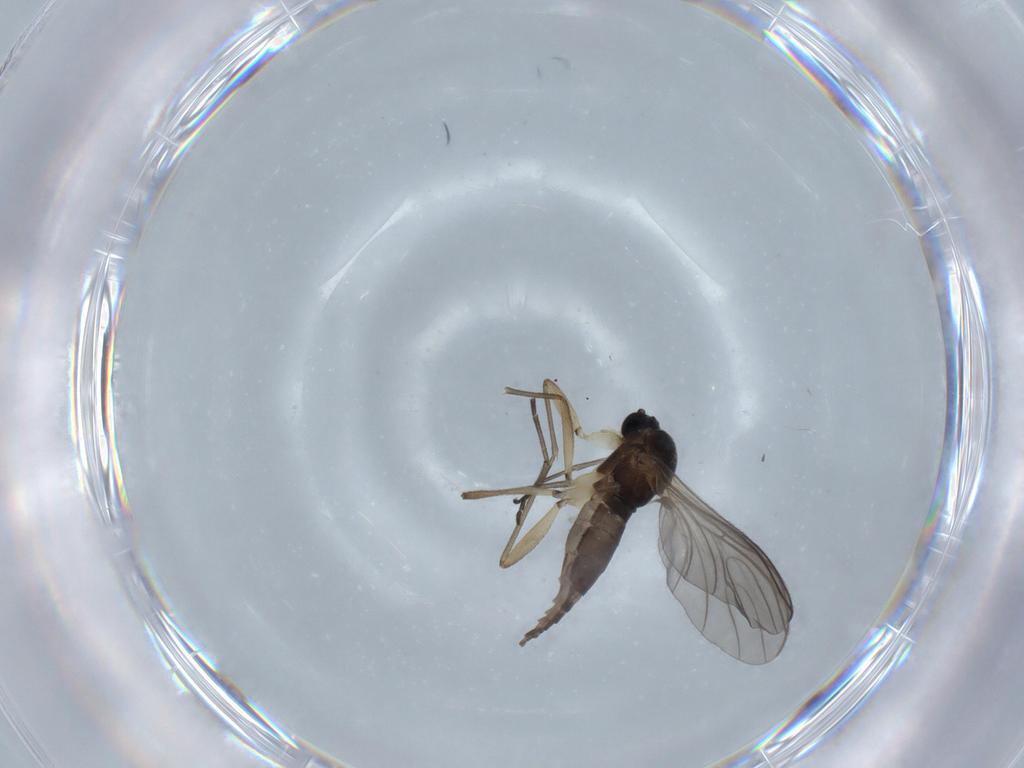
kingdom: Animalia
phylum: Arthropoda
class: Insecta
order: Diptera
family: Sciaridae
